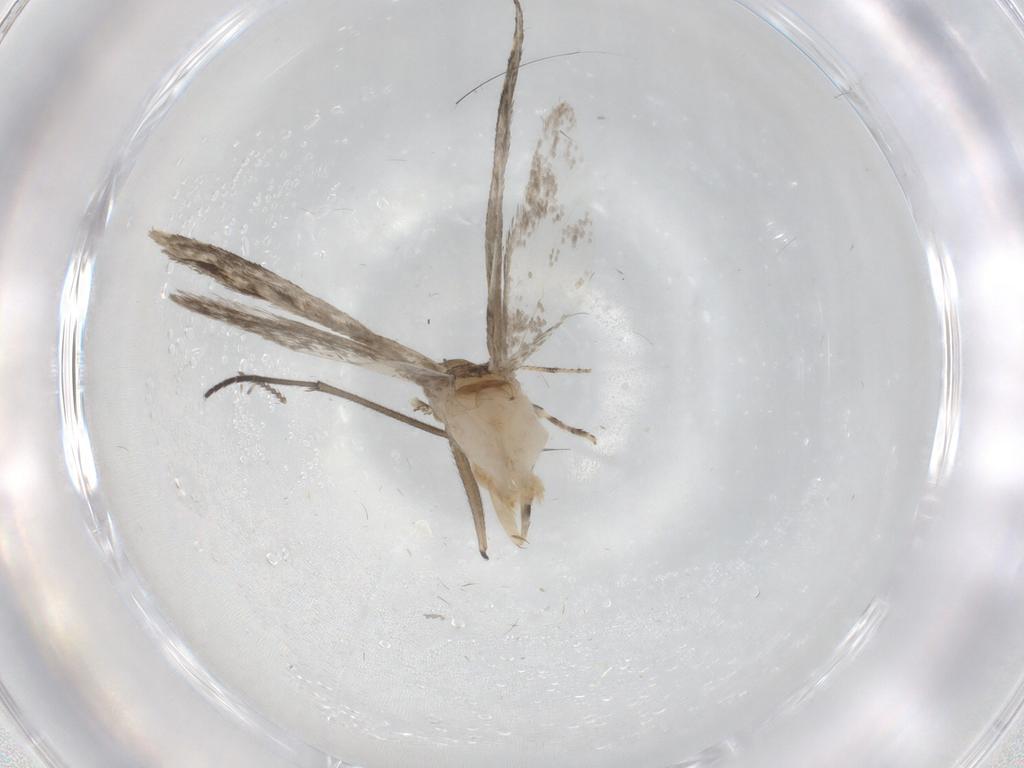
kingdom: Animalia
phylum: Arthropoda
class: Insecta
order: Lepidoptera
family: Tineidae
